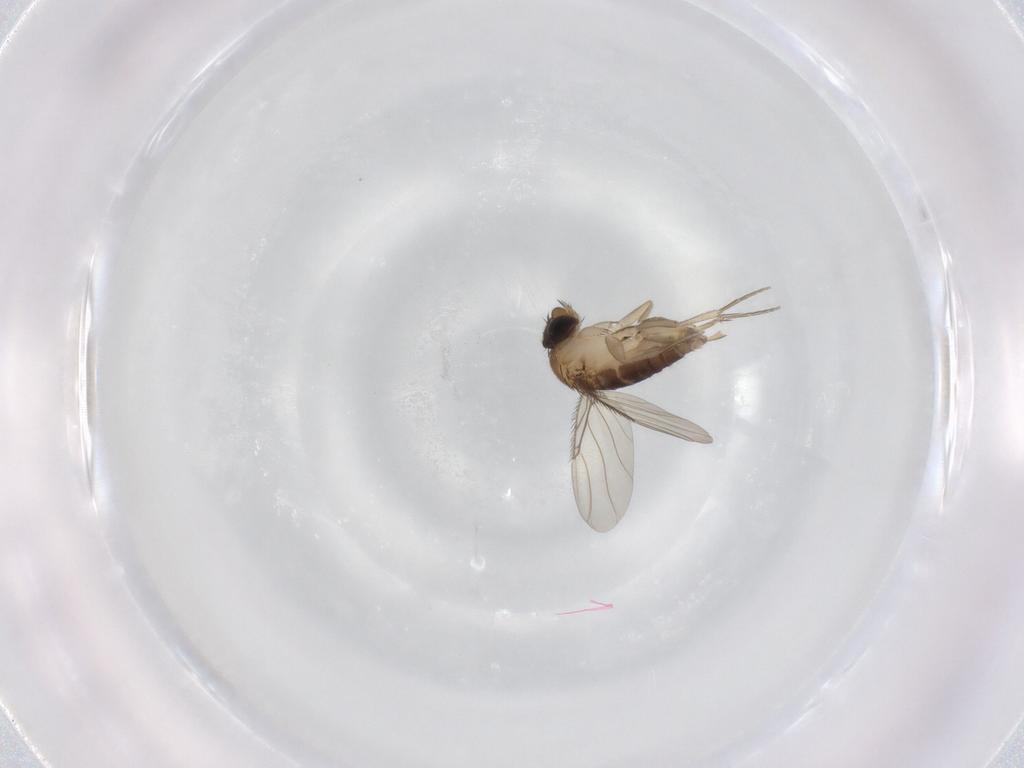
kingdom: Animalia
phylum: Arthropoda
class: Insecta
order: Diptera
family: Phoridae
